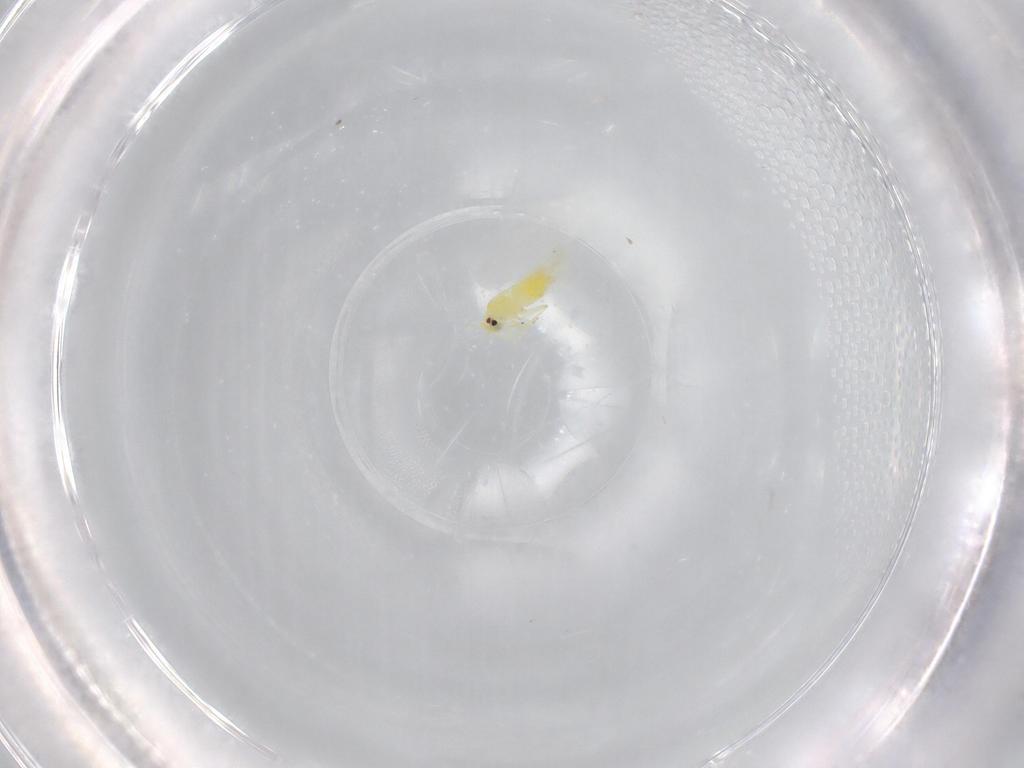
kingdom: Animalia
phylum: Arthropoda
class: Insecta
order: Hemiptera
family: Aleyrodidae
